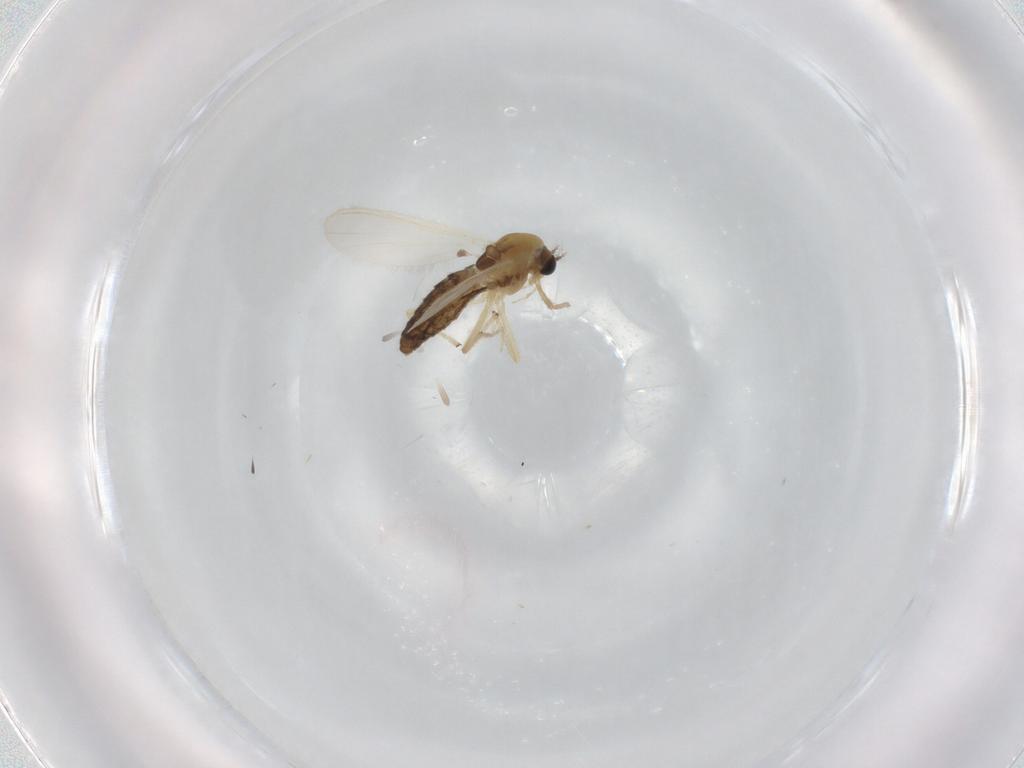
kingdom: Animalia
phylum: Arthropoda
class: Insecta
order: Diptera
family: Chironomidae
